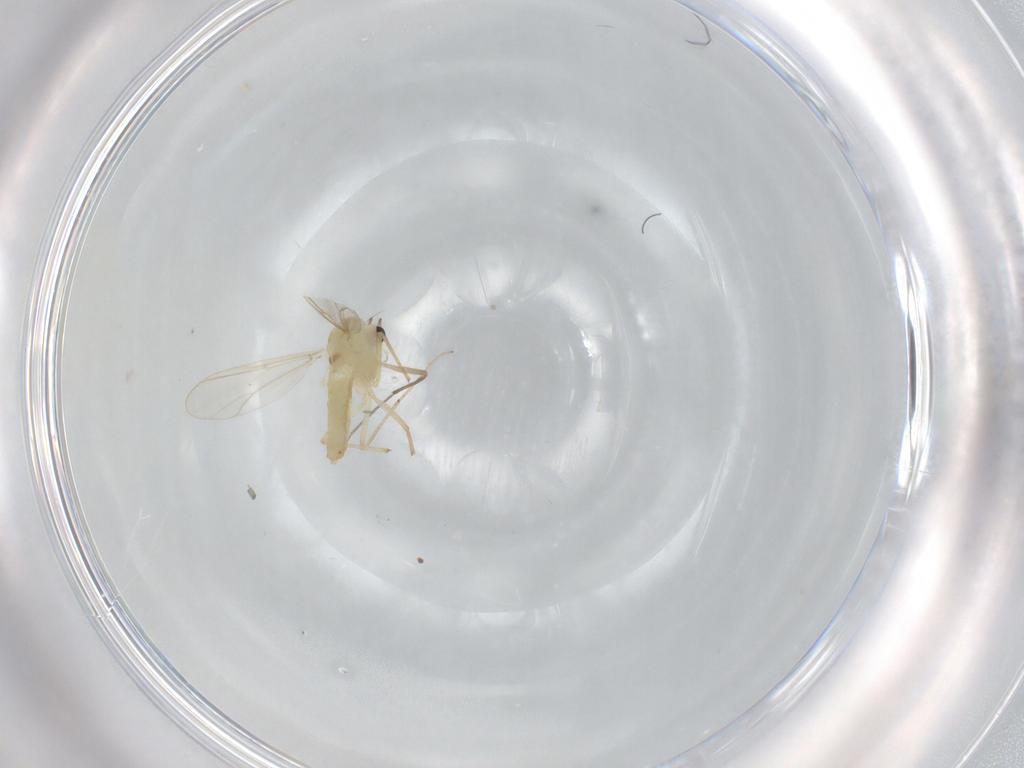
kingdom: Animalia
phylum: Arthropoda
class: Insecta
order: Diptera
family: Chironomidae
